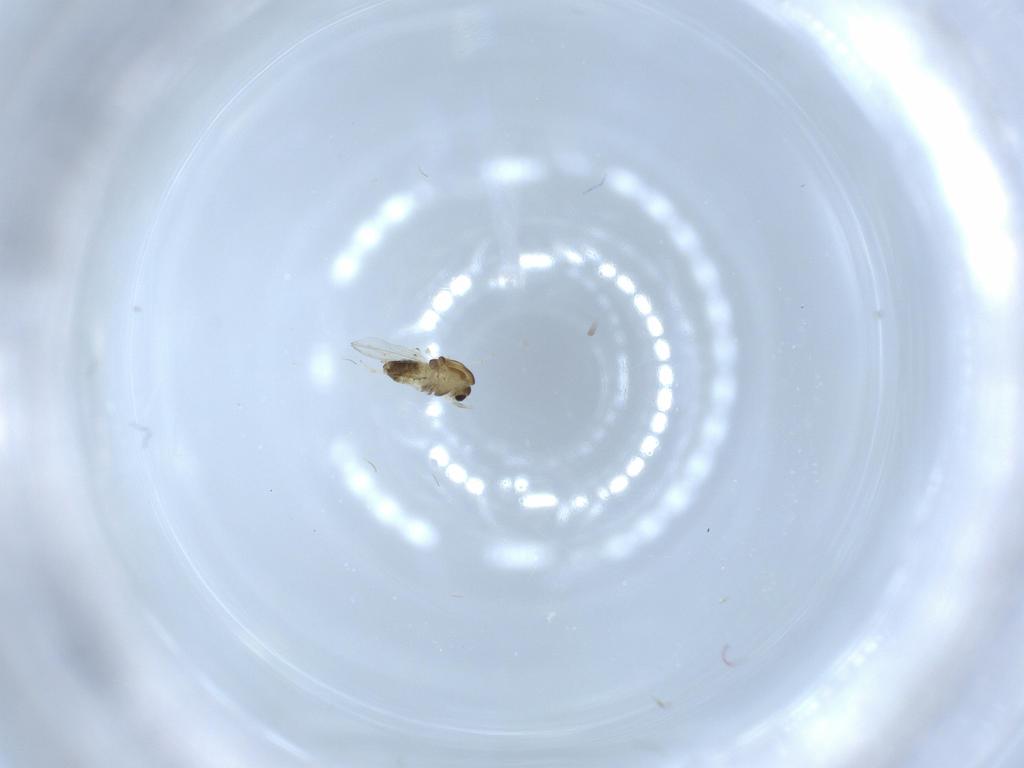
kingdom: Animalia
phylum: Arthropoda
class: Insecta
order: Diptera
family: Chironomidae
